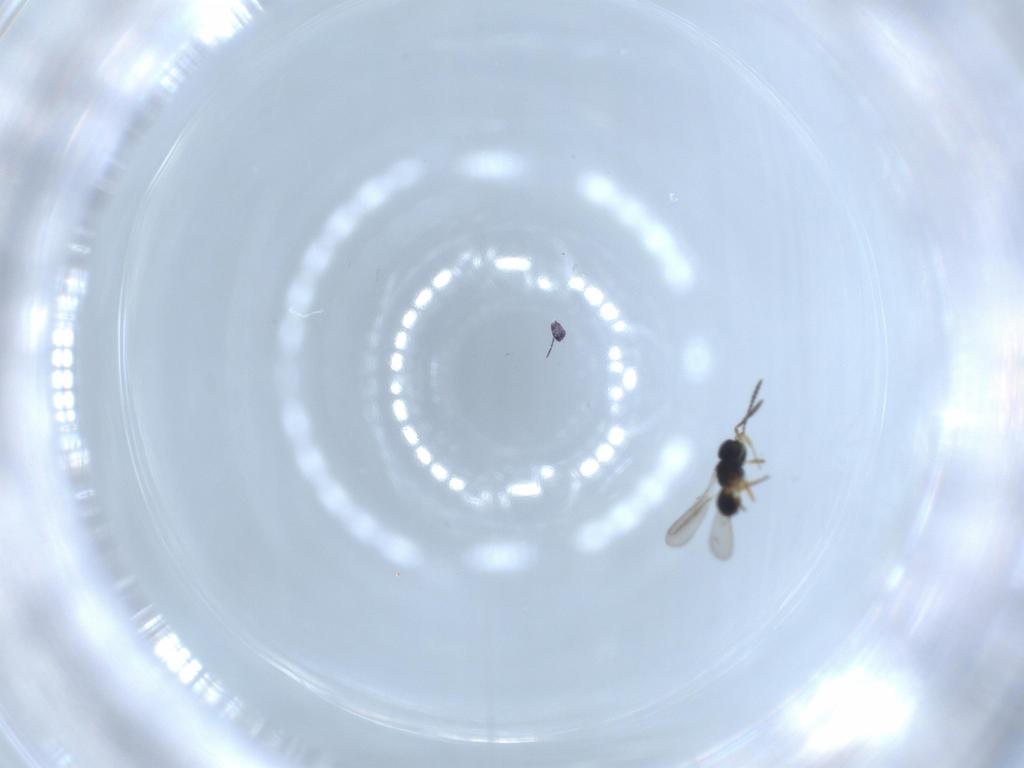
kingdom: Animalia
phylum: Arthropoda
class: Insecta
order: Hymenoptera
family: Scelionidae
